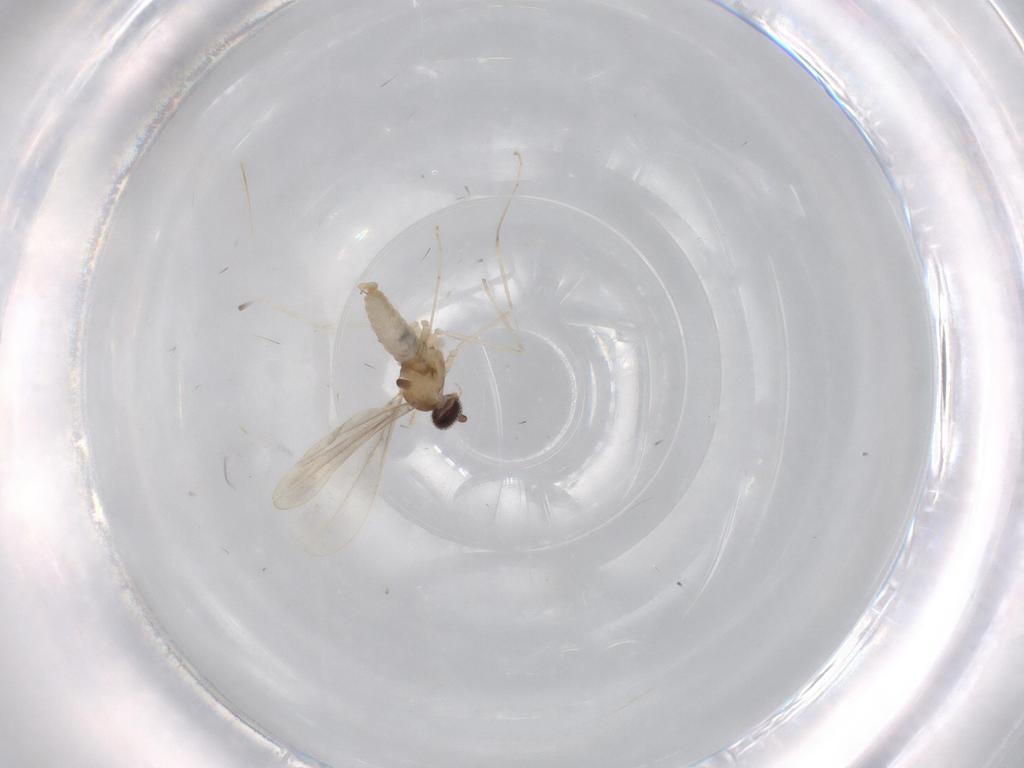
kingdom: Animalia
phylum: Arthropoda
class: Insecta
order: Diptera
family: Cecidomyiidae
